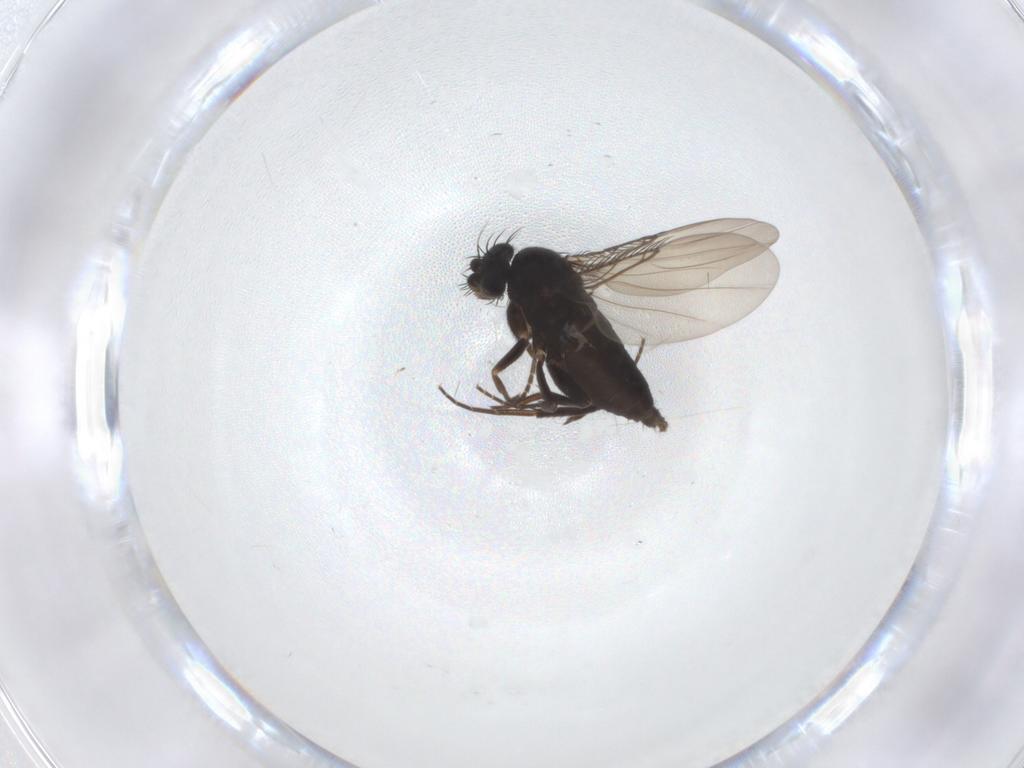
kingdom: Animalia
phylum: Arthropoda
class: Insecta
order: Diptera
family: Phoridae
